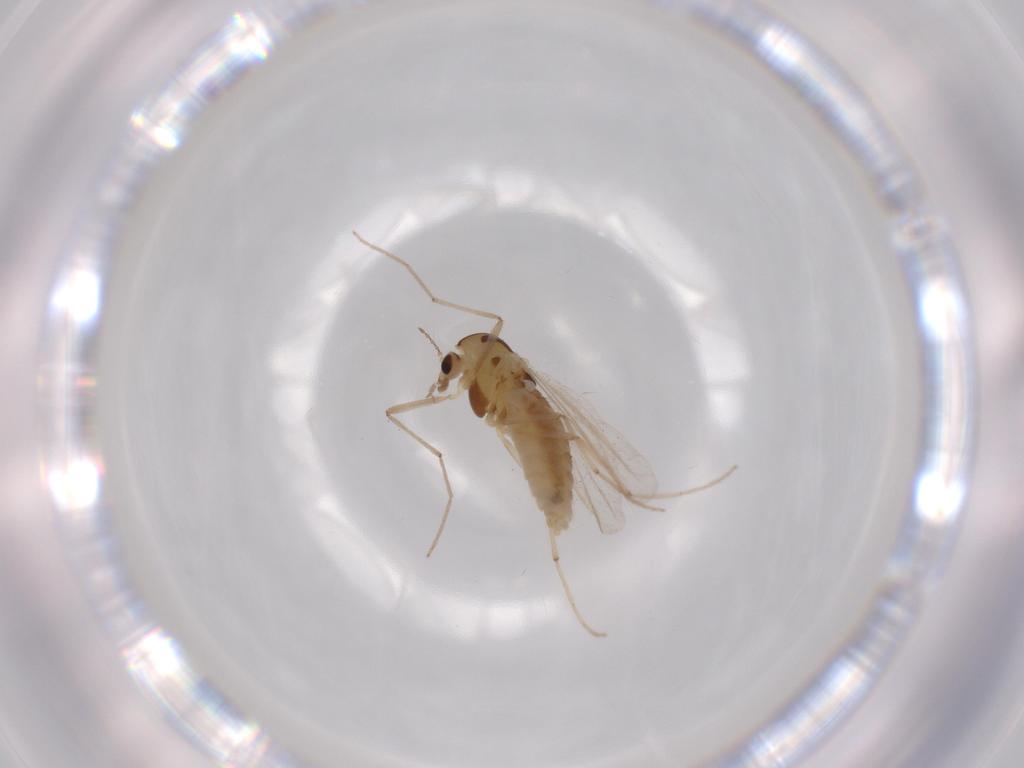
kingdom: Animalia
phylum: Arthropoda
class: Insecta
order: Diptera
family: Chironomidae
